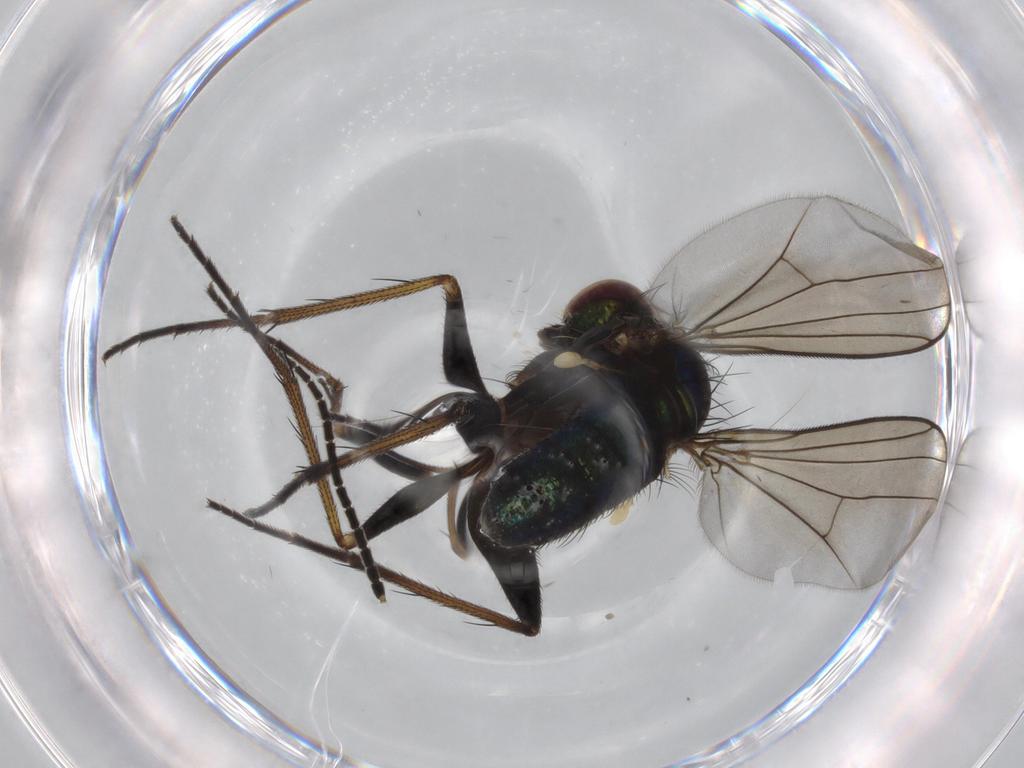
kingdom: Animalia
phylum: Arthropoda
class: Insecta
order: Diptera
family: Dolichopodidae
